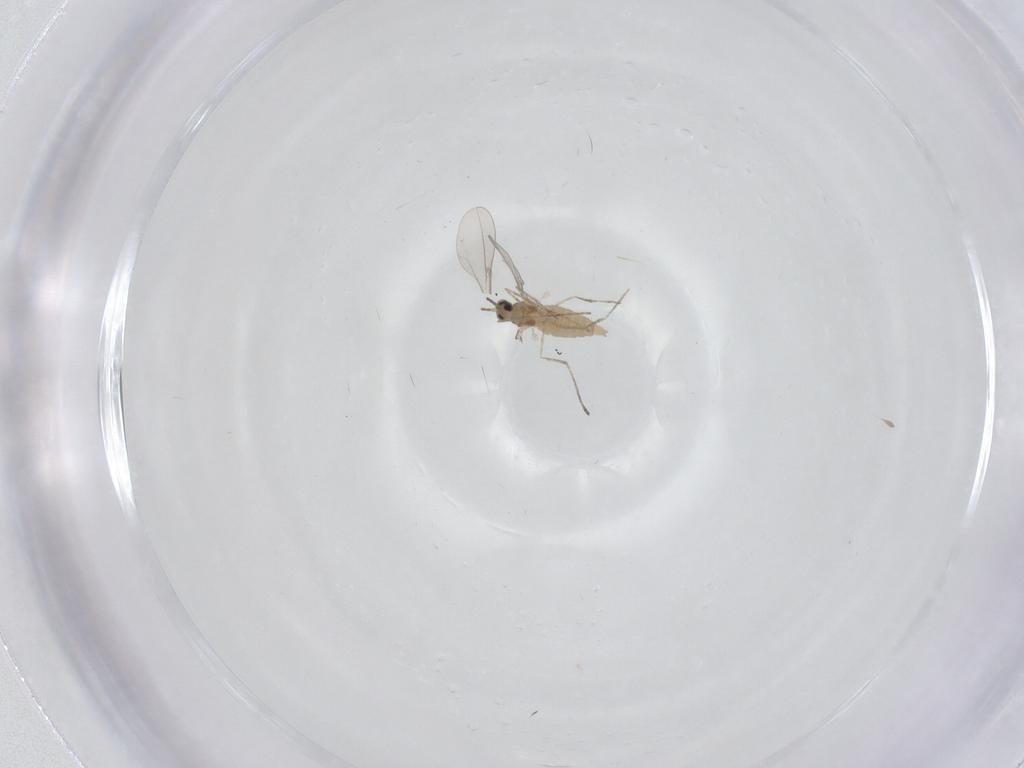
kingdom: Animalia
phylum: Arthropoda
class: Insecta
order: Diptera
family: Cecidomyiidae
